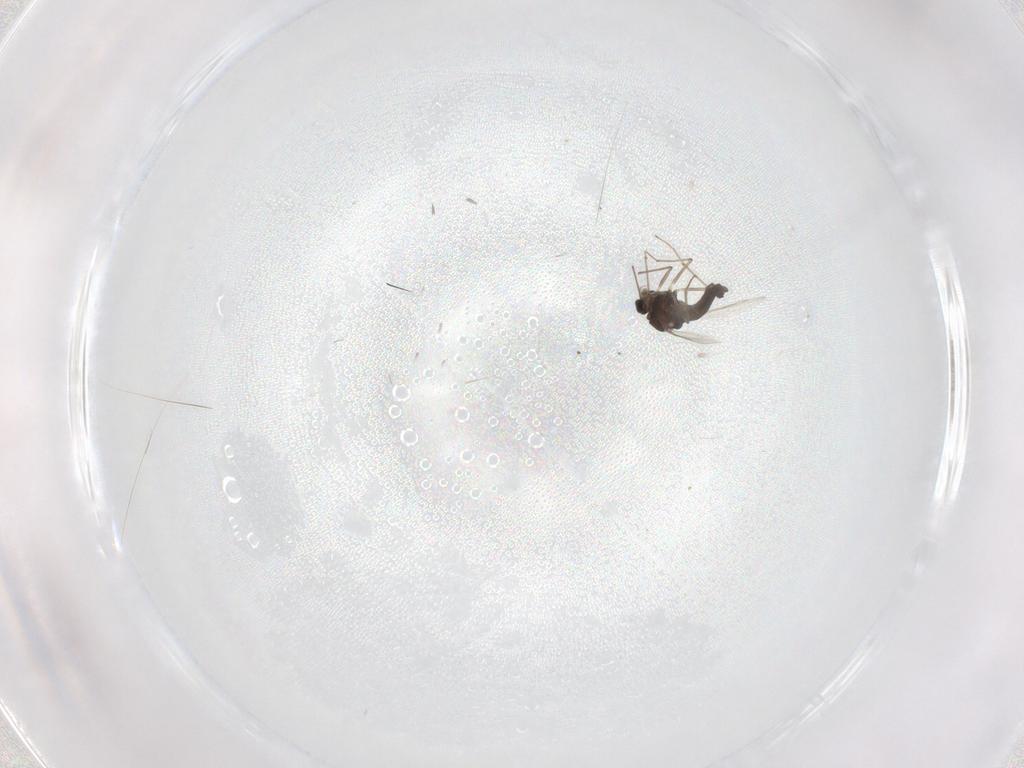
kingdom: Animalia
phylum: Arthropoda
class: Insecta
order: Diptera
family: Chironomidae
